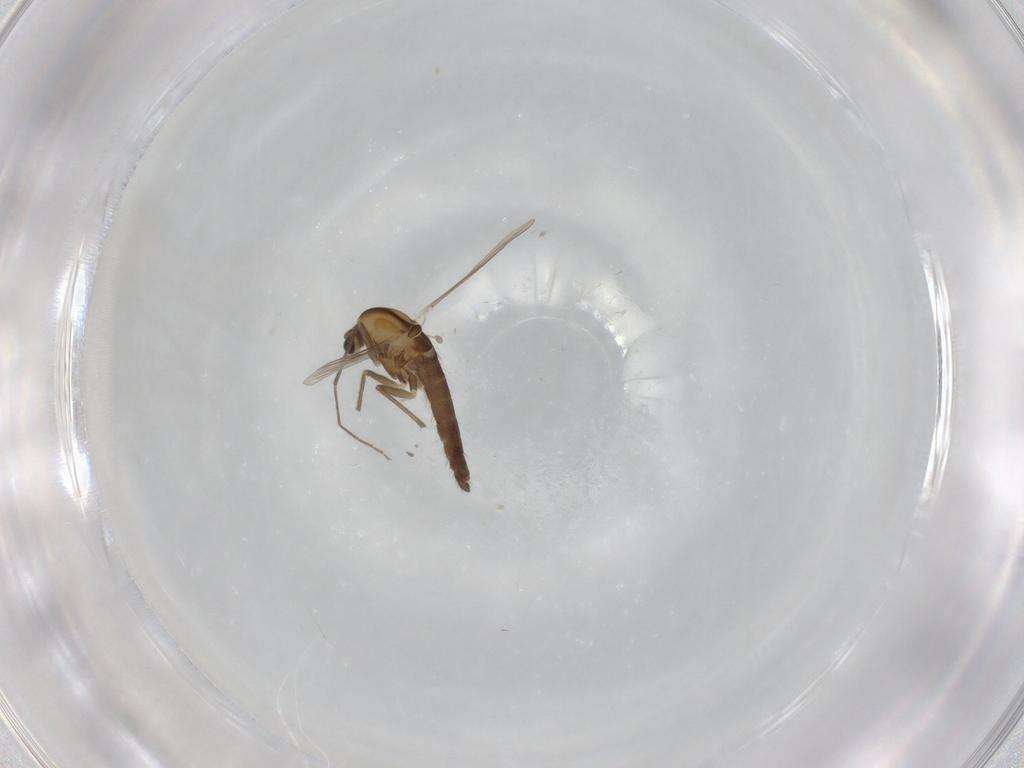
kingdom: Animalia
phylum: Arthropoda
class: Insecta
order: Diptera
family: Chironomidae
